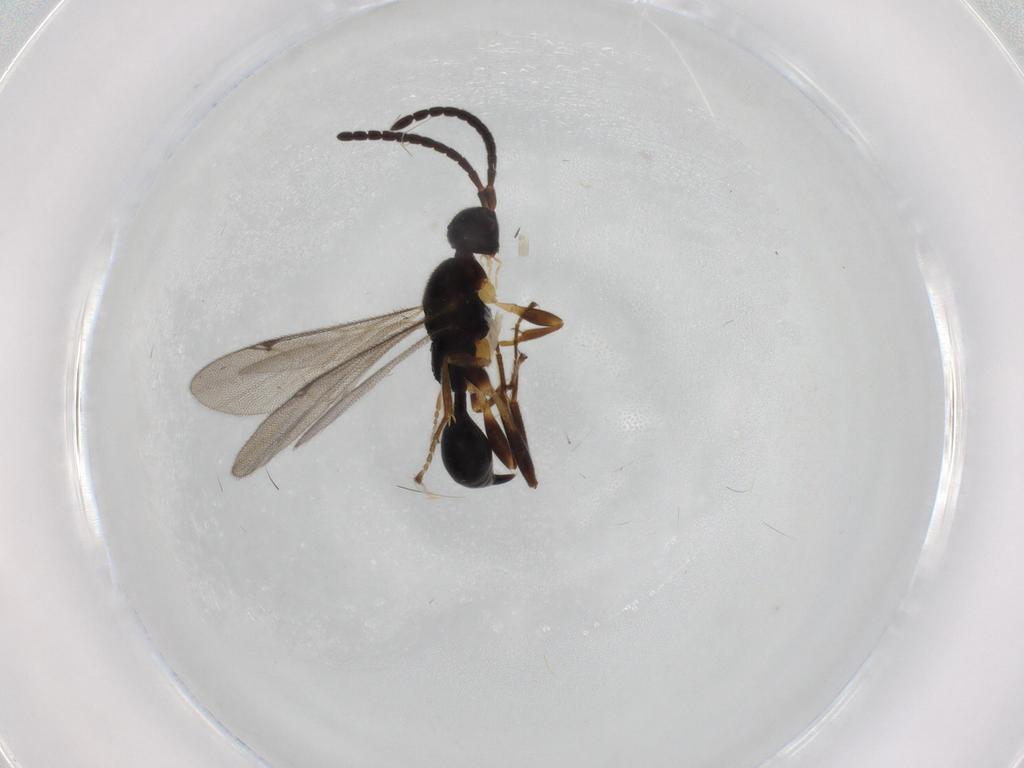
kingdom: Animalia
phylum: Arthropoda
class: Insecta
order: Hymenoptera
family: Proctotrupidae
